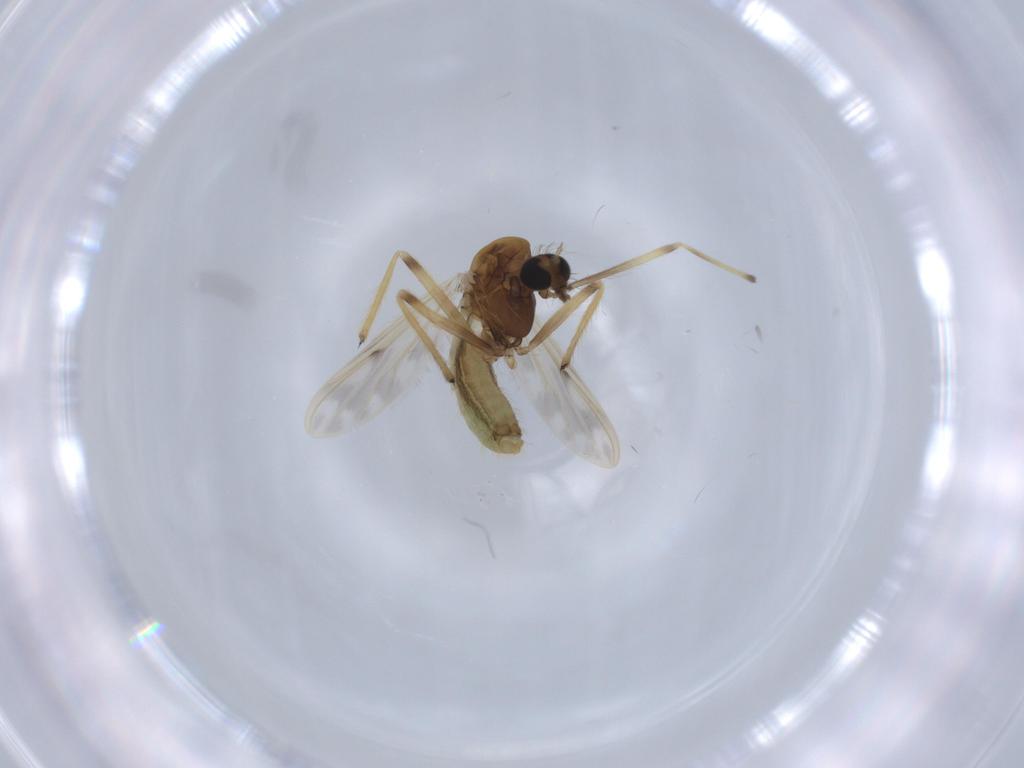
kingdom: Animalia
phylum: Arthropoda
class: Insecta
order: Diptera
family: Chironomidae
